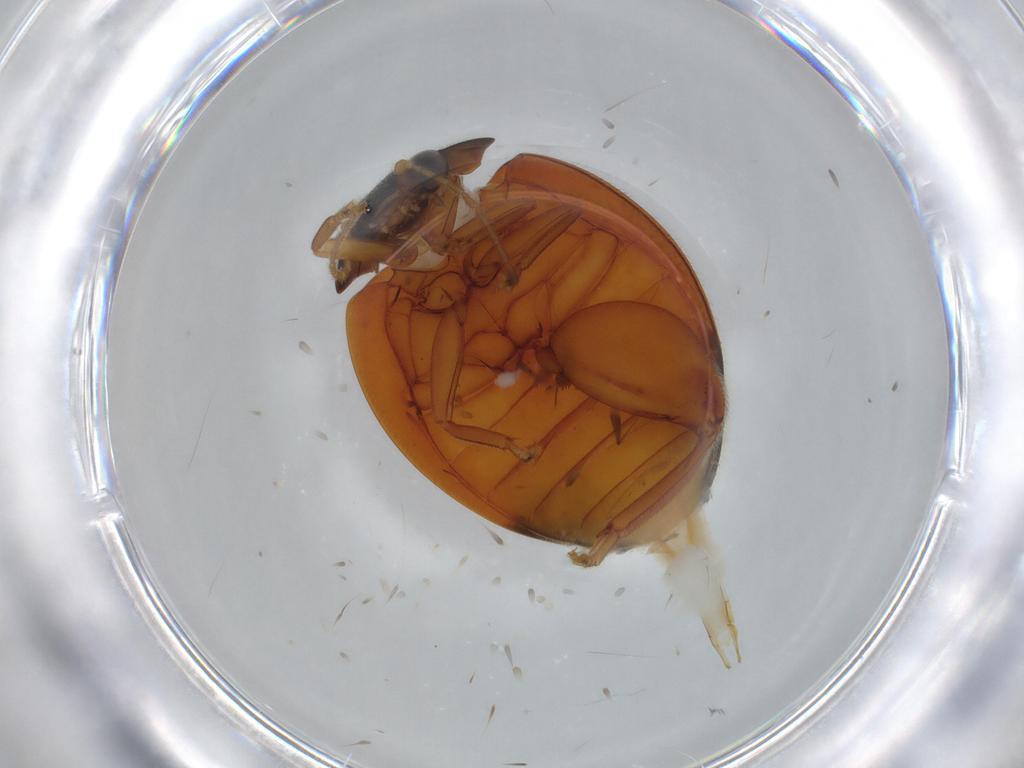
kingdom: Animalia
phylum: Arthropoda
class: Insecta
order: Coleoptera
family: Scirtidae
